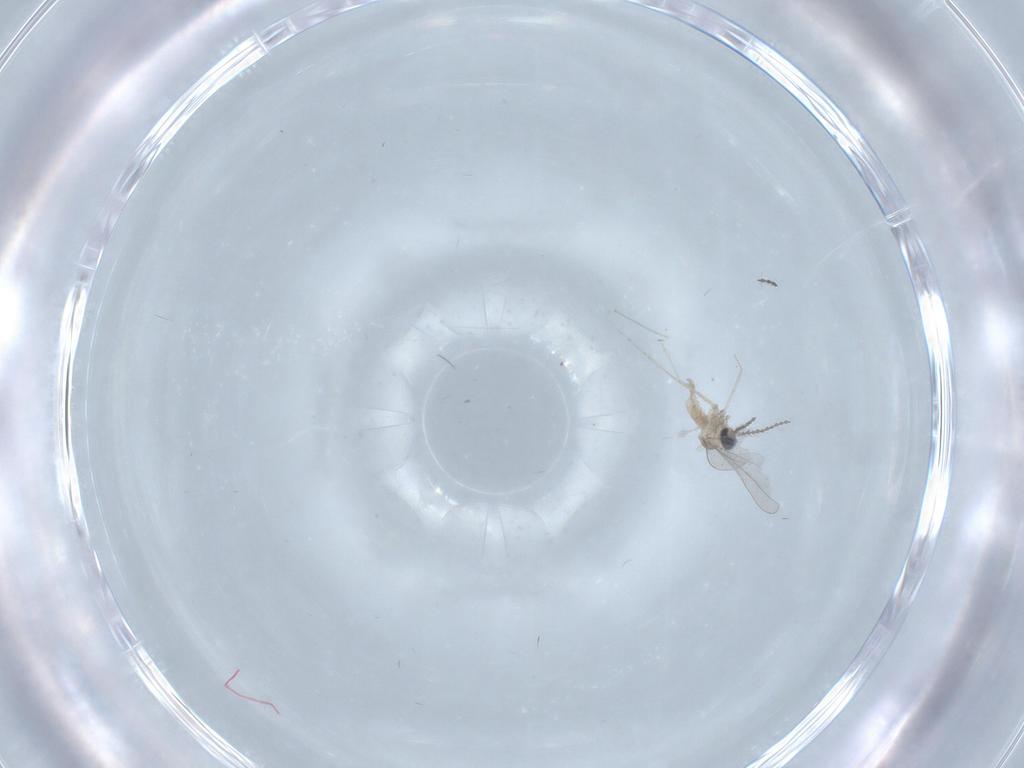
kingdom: Animalia
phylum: Arthropoda
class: Insecta
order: Diptera
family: Cecidomyiidae
